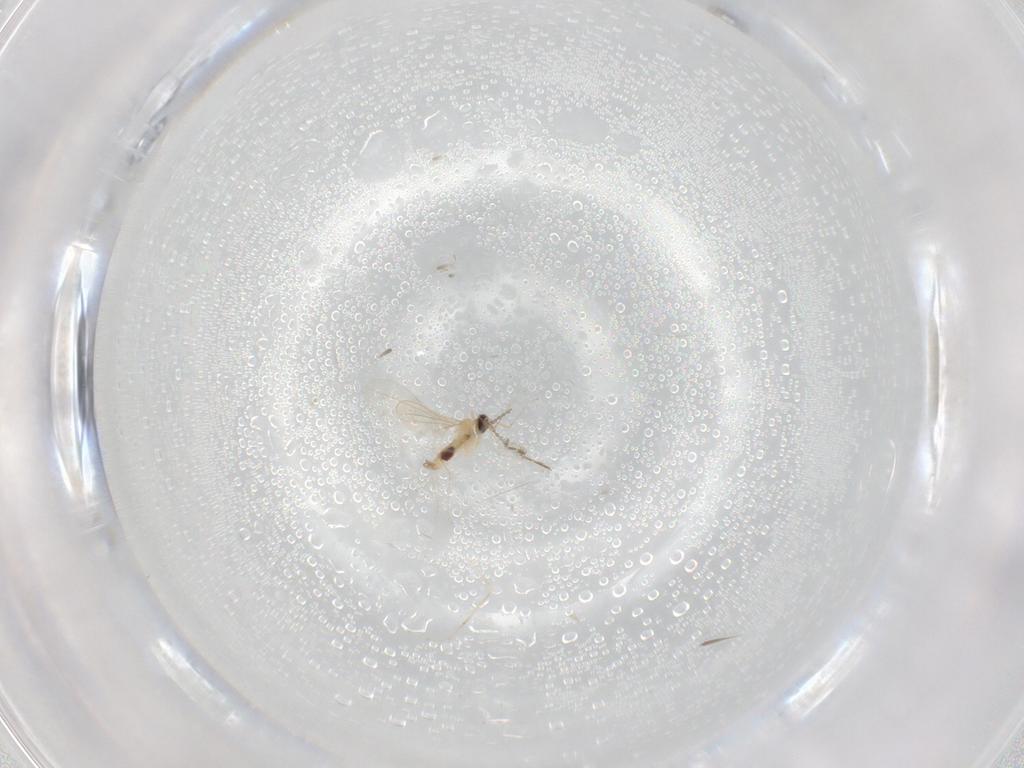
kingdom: Animalia
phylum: Arthropoda
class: Insecta
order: Diptera
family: Cecidomyiidae
